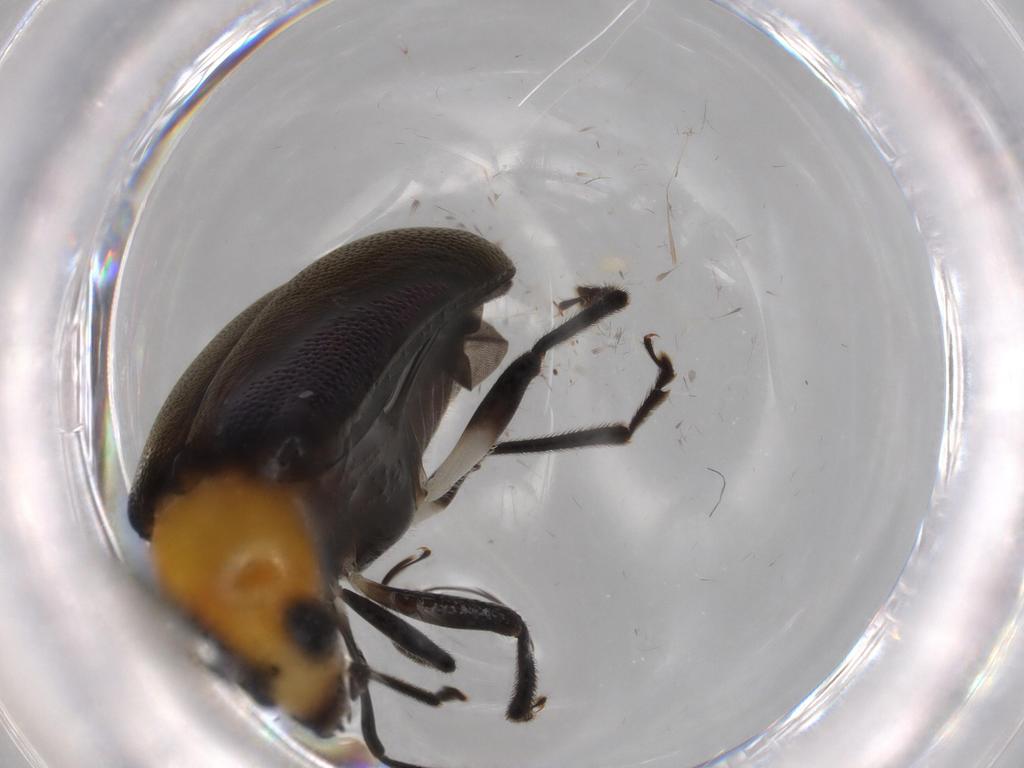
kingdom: Animalia
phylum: Arthropoda
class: Insecta
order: Coleoptera
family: Chrysomelidae
